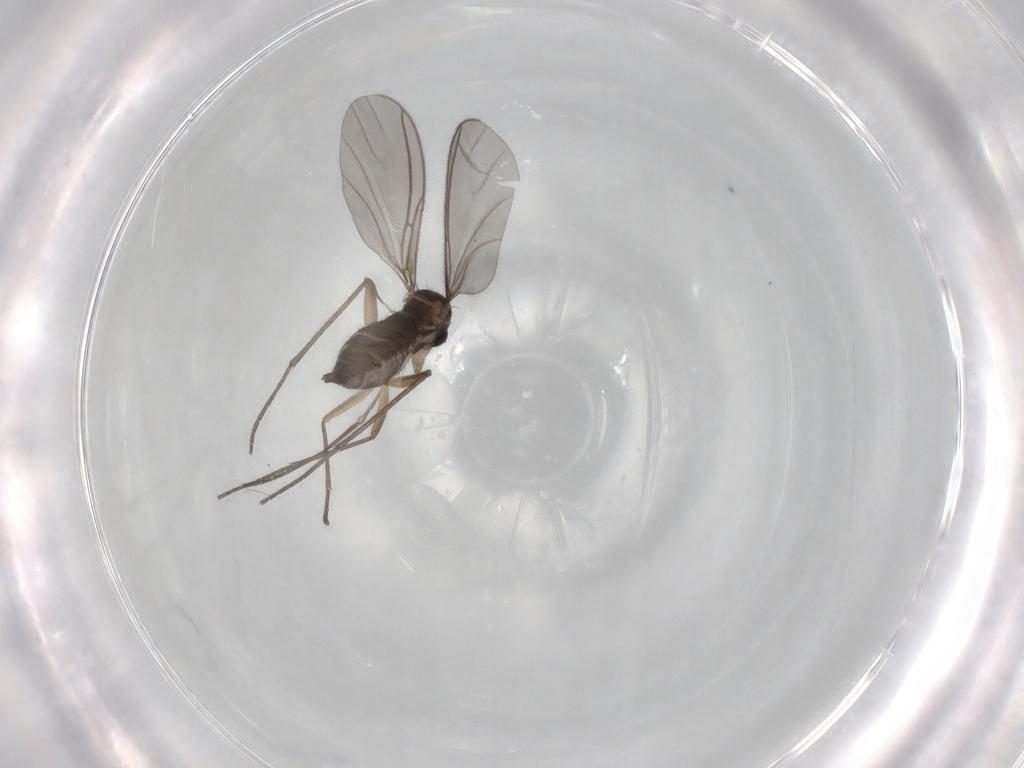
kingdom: Animalia
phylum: Arthropoda
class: Insecta
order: Diptera
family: Sciaridae
